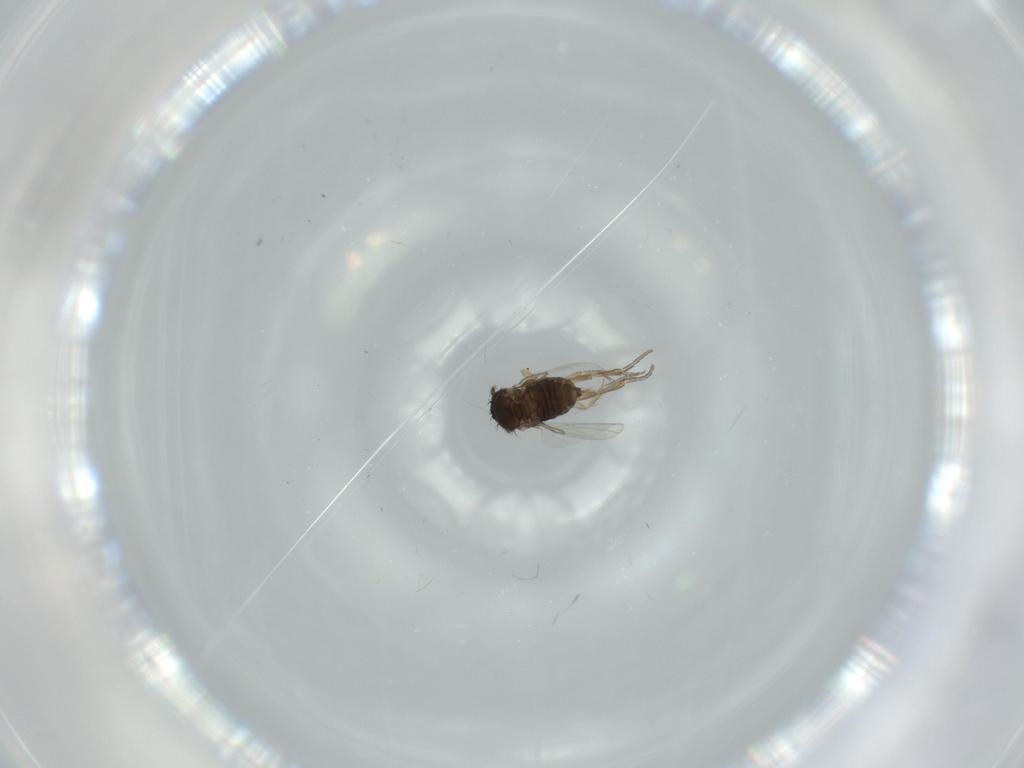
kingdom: Animalia
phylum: Arthropoda
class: Insecta
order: Diptera
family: Phoridae
